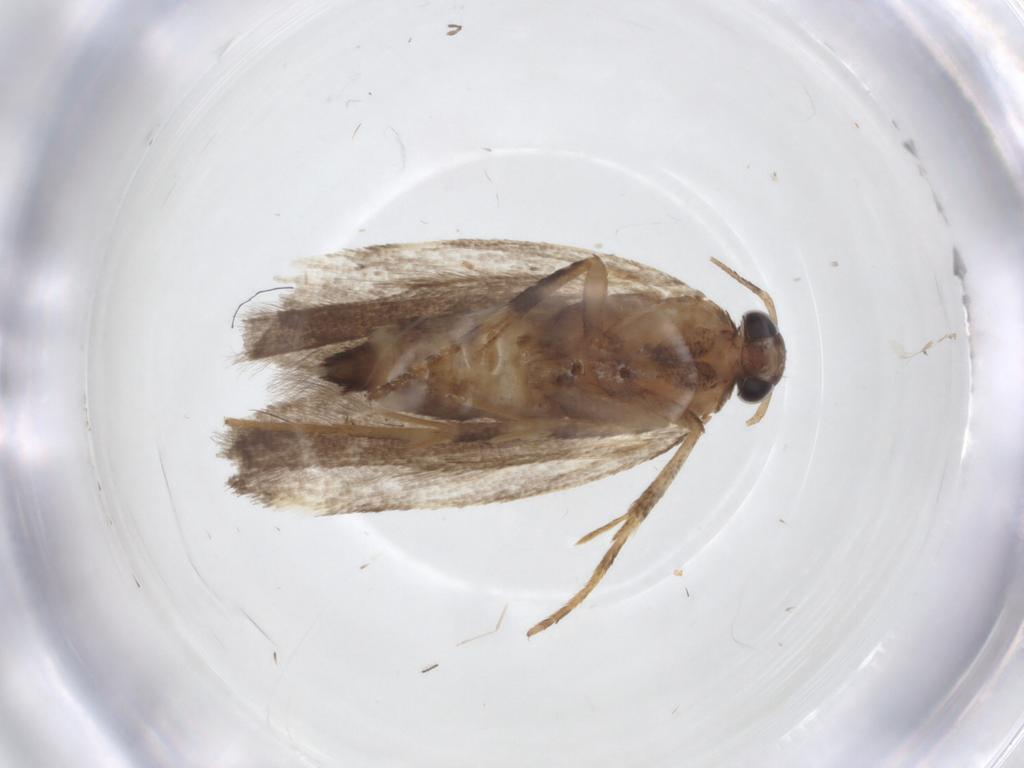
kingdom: Animalia
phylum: Arthropoda
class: Insecta
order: Lepidoptera
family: Gelechiidae
